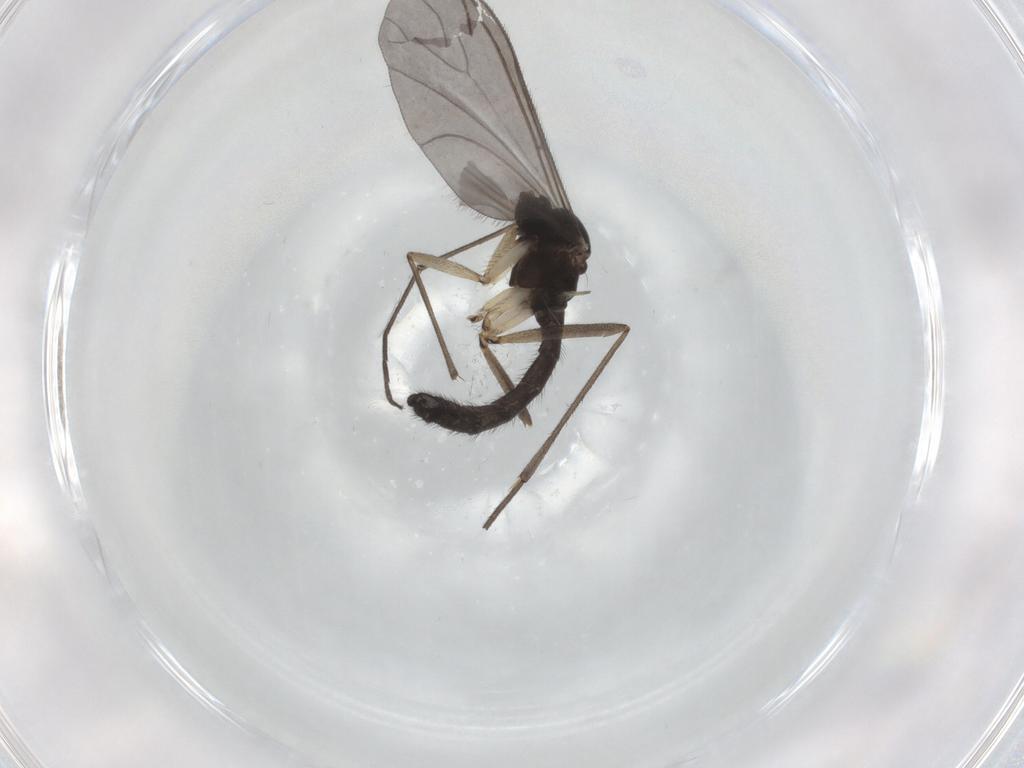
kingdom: Animalia
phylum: Arthropoda
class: Insecta
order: Diptera
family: Sciaridae
